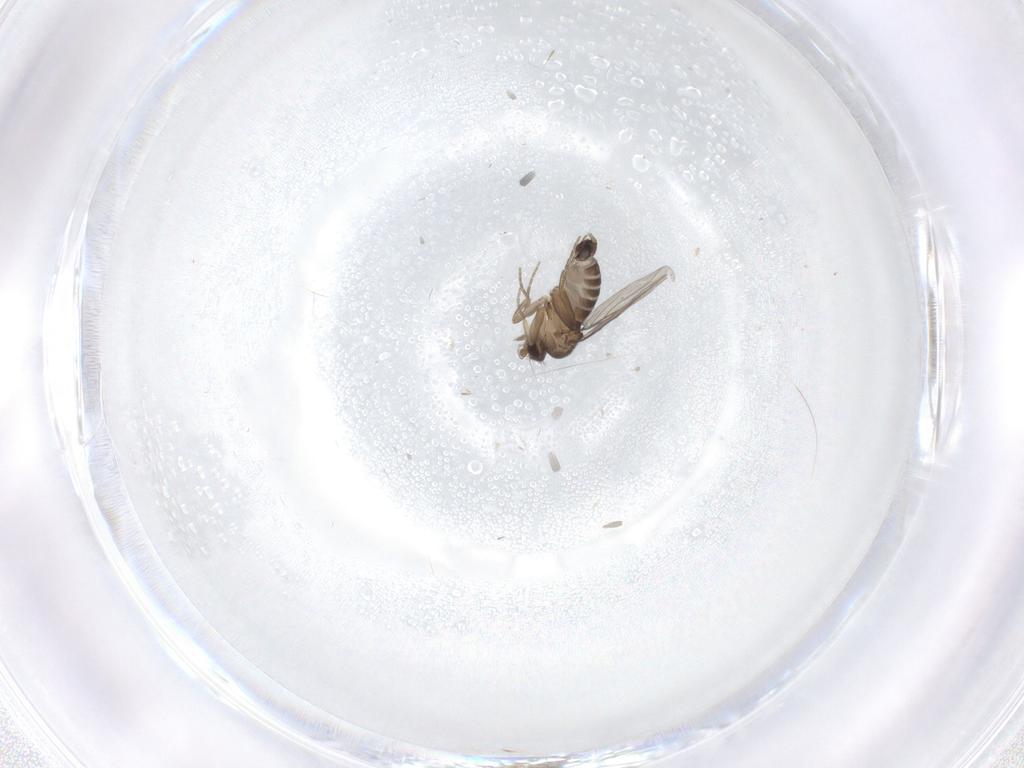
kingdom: Animalia
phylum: Arthropoda
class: Insecta
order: Diptera
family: Phoridae
